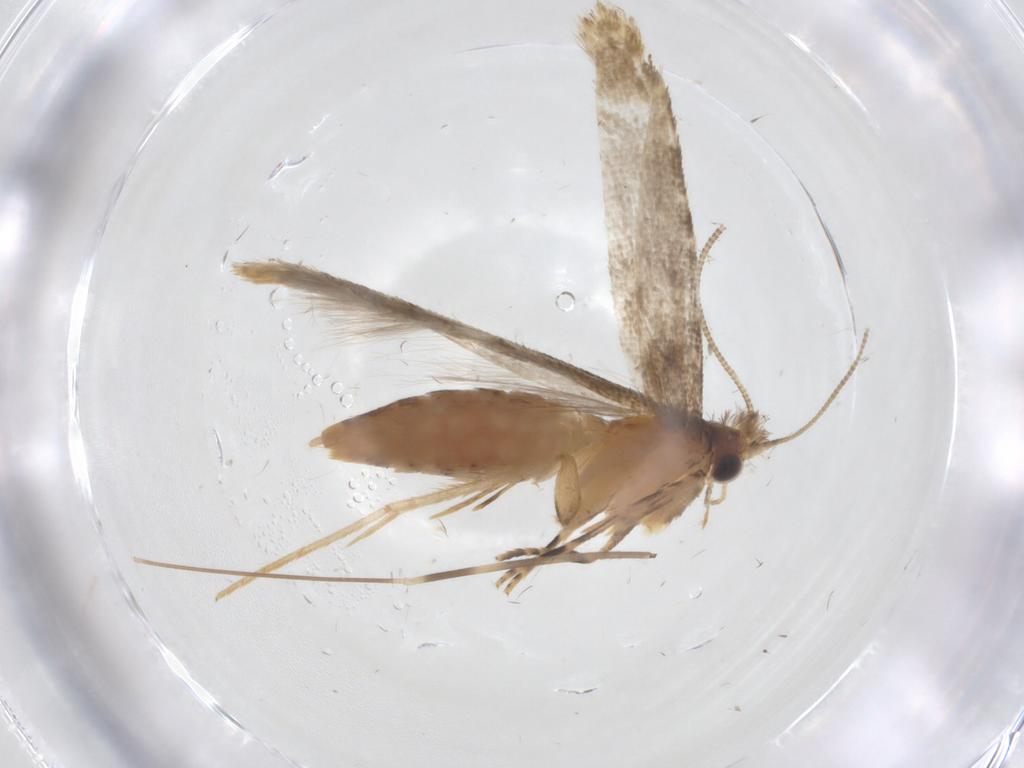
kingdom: Animalia
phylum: Arthropoda
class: Insecta
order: Lepidoptera
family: Tineidae
